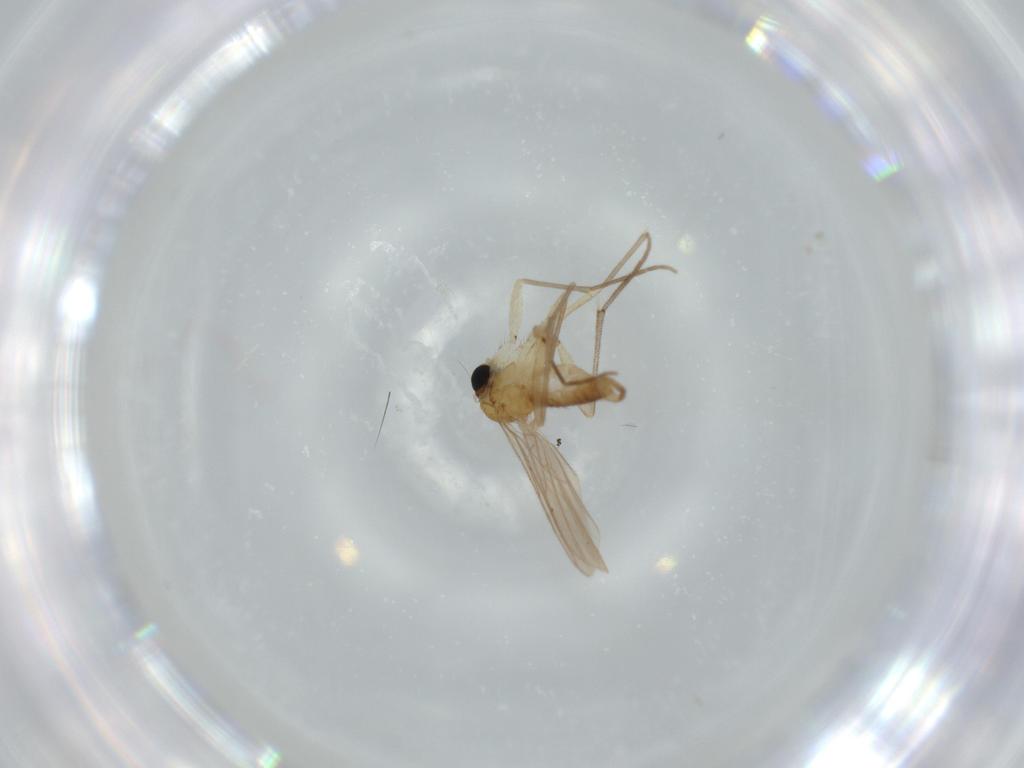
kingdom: Animalia
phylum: Arthropoda
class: Insecta
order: Diptera
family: Sciaridae
